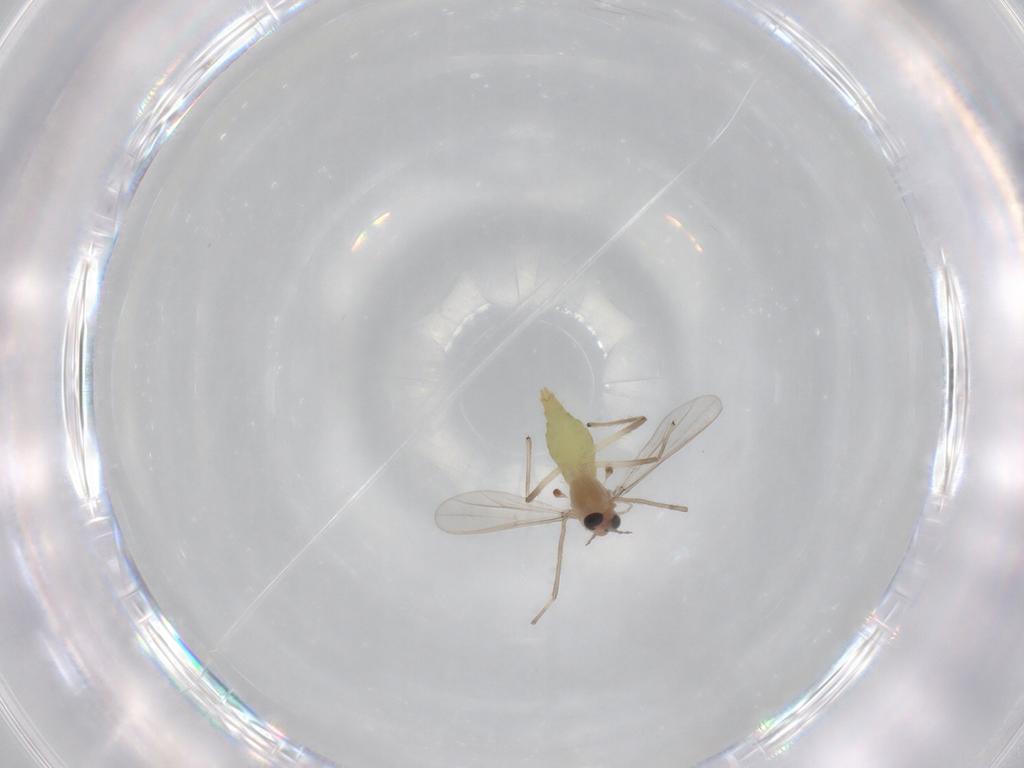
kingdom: Animalia
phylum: Arthropoda
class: Insecta
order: Diptera
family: Chironomidae
